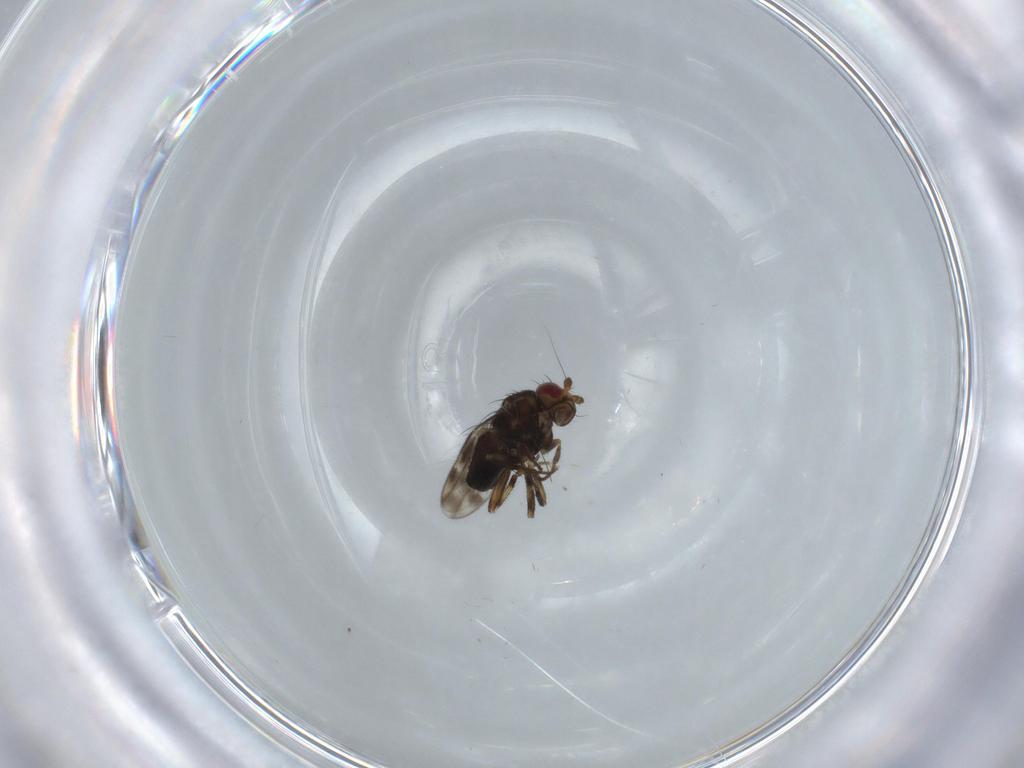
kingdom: Animalia
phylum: Arthropoda
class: Insecta
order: Diptera
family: Sphaeroceridae
